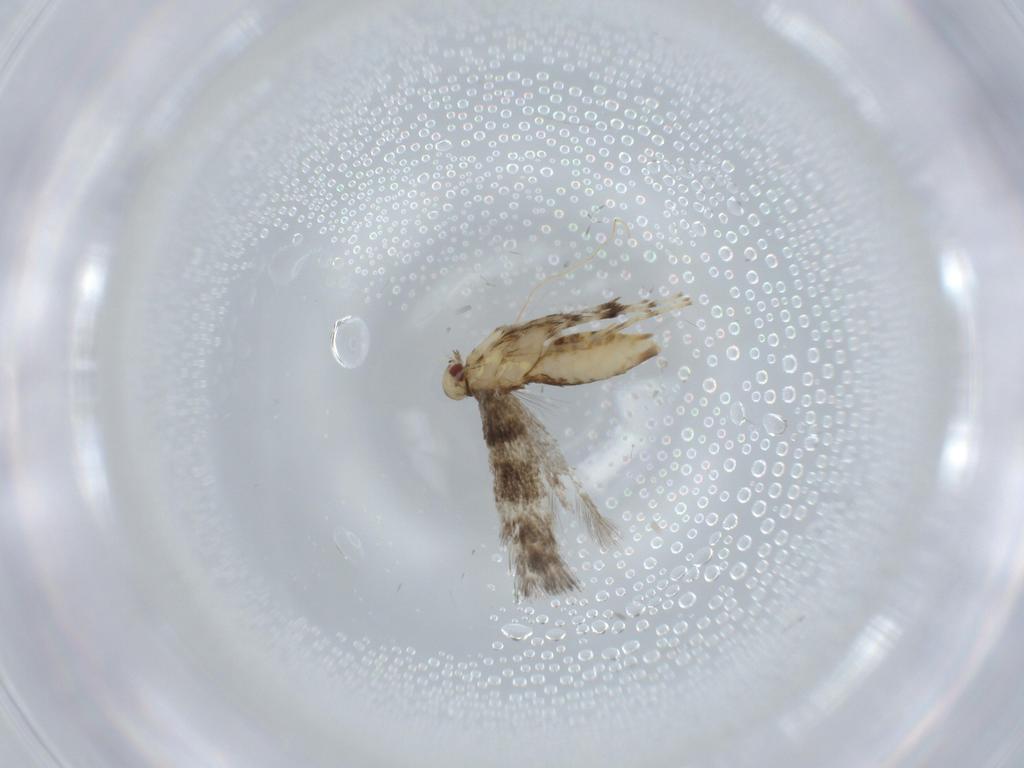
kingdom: Animalia
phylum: Arthropoda
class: Insecta
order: Lepidoptera
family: Gracillariidae
